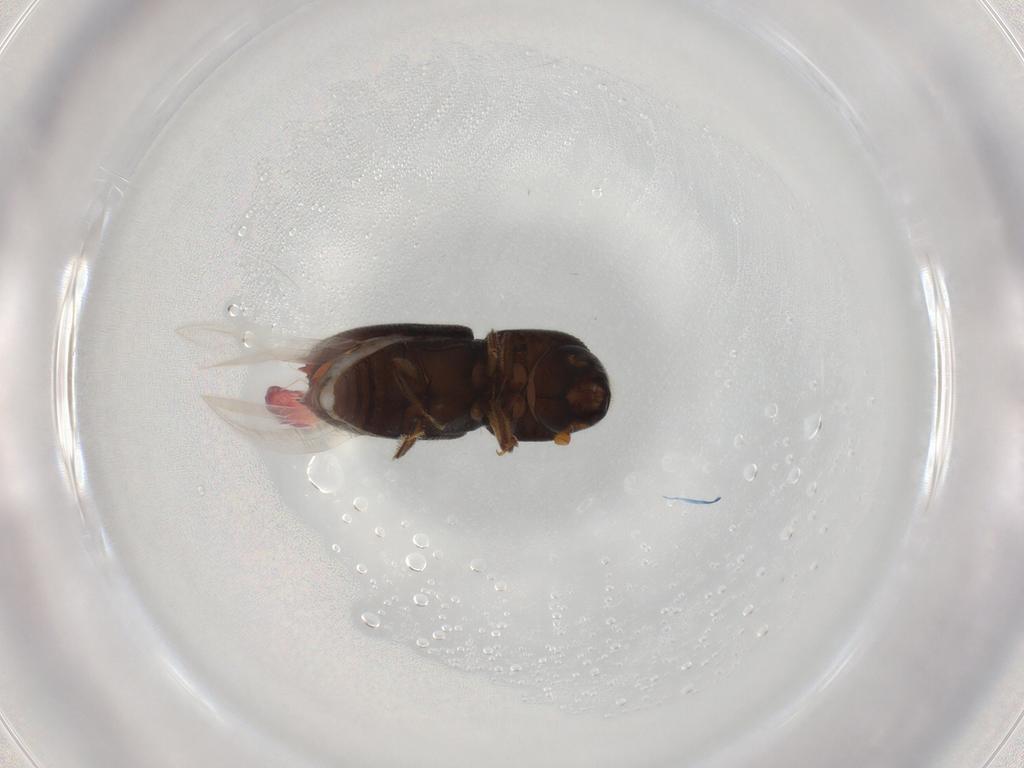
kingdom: Animalia
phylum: Arthropoda
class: Insecta
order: Coleoptera
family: Curculionidae
